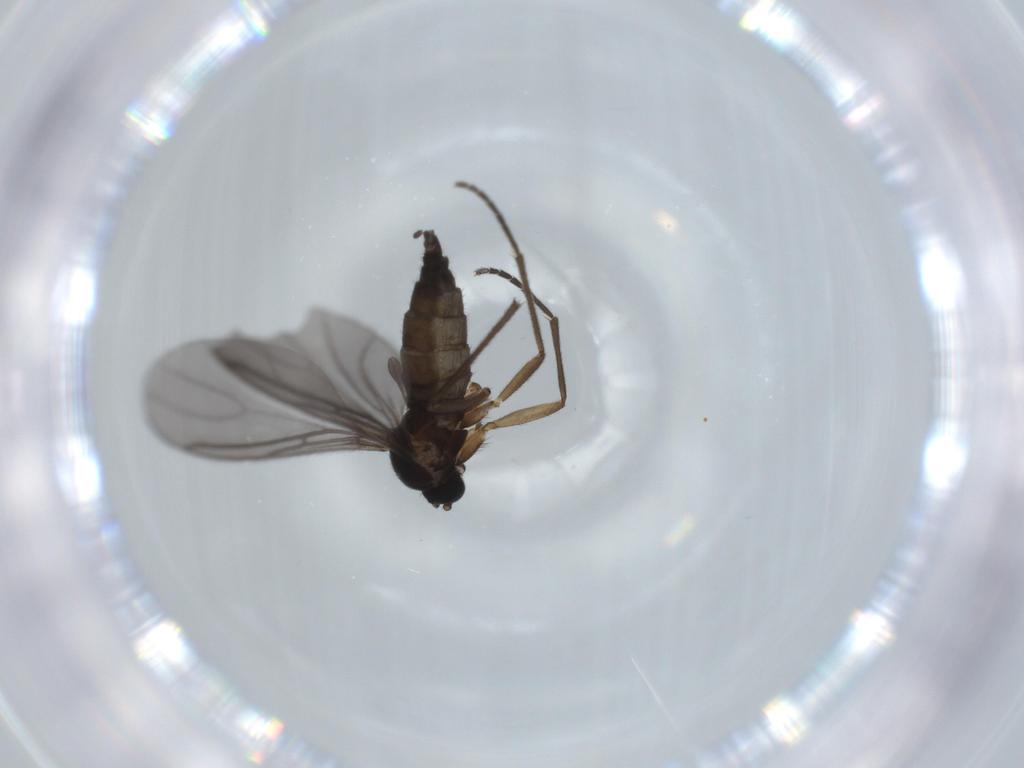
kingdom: Animalia
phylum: Arthropoda
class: Insecta
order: Diptera
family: Sciaridae
